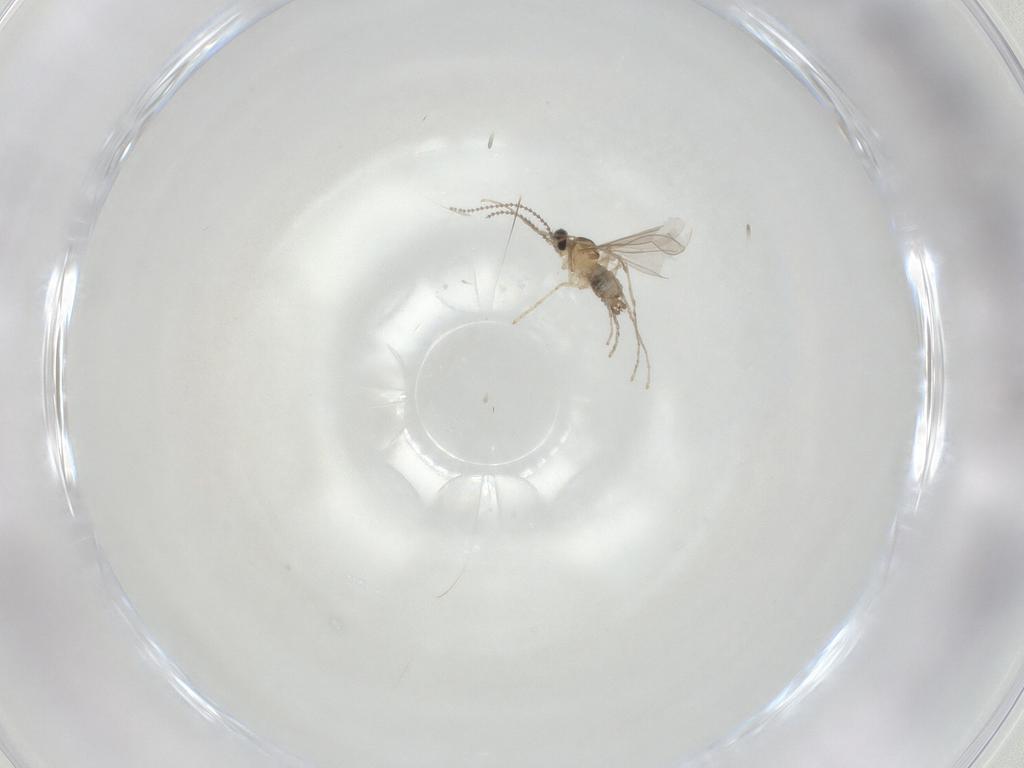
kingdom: Animalia
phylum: Arthropoda
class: Insecta
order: Diptera
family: Cecidomyiidae
